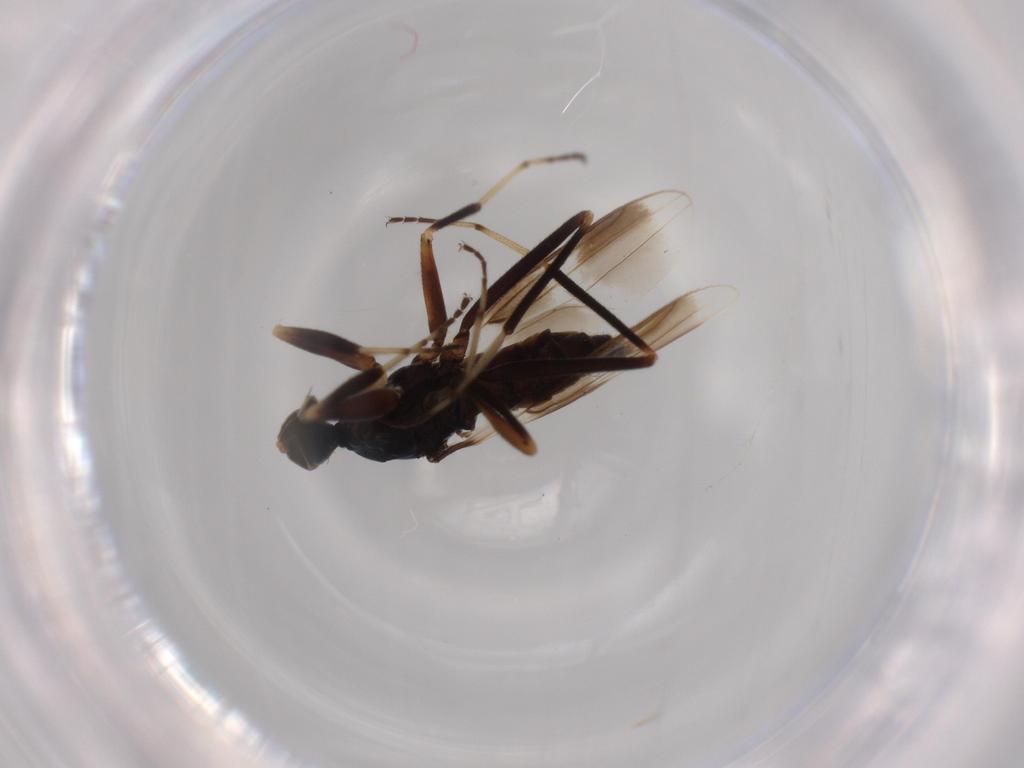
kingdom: Animalia
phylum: Arthropoda
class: Insecta
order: Diptera
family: Hybotidae
